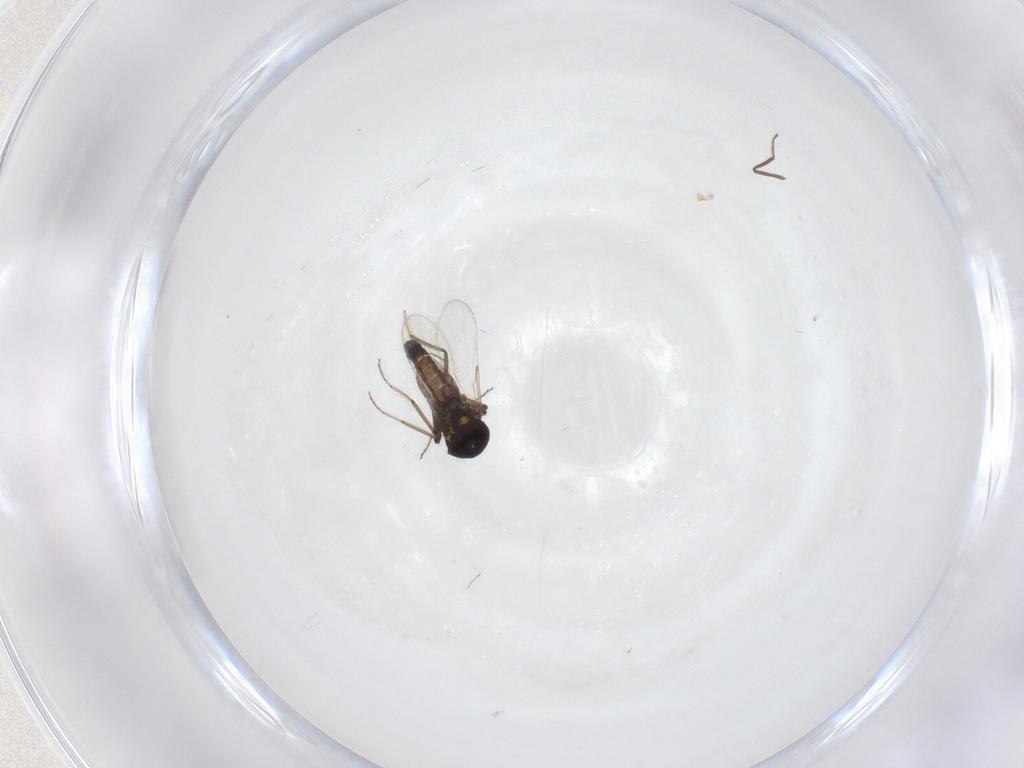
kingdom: Animalia
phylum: Arthropoda
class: Insecta
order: Diptera
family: Ceratopogonidae
